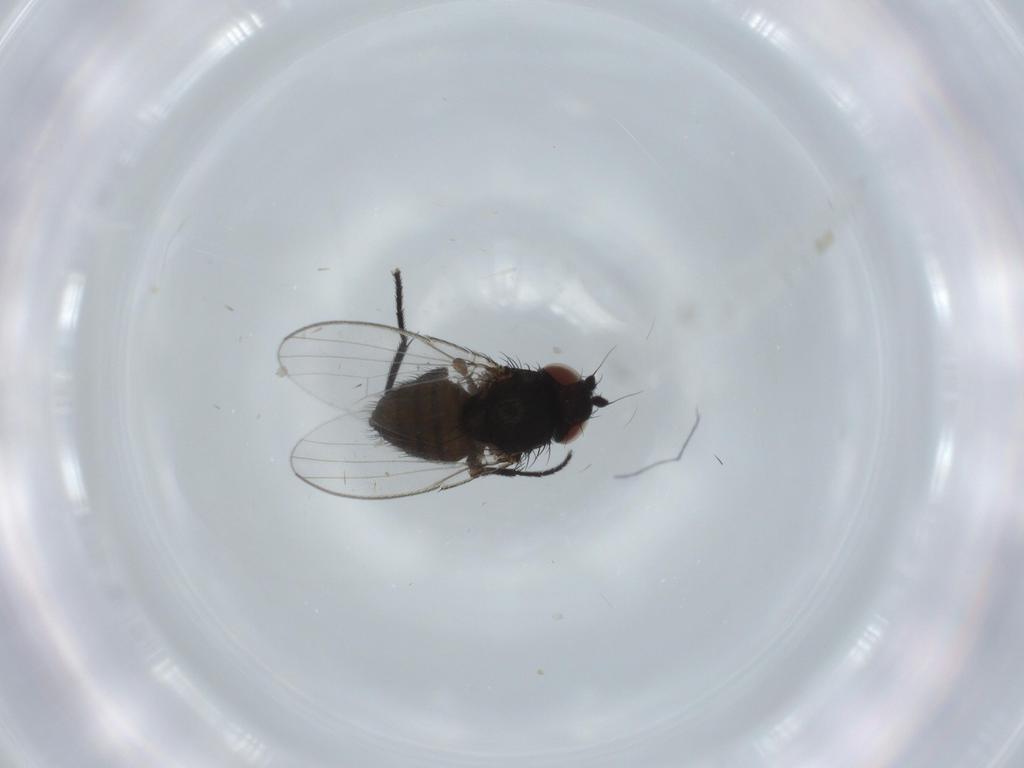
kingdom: Animalia
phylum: Arthropoda
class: Insecta
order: Diptera
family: Milichiidae
